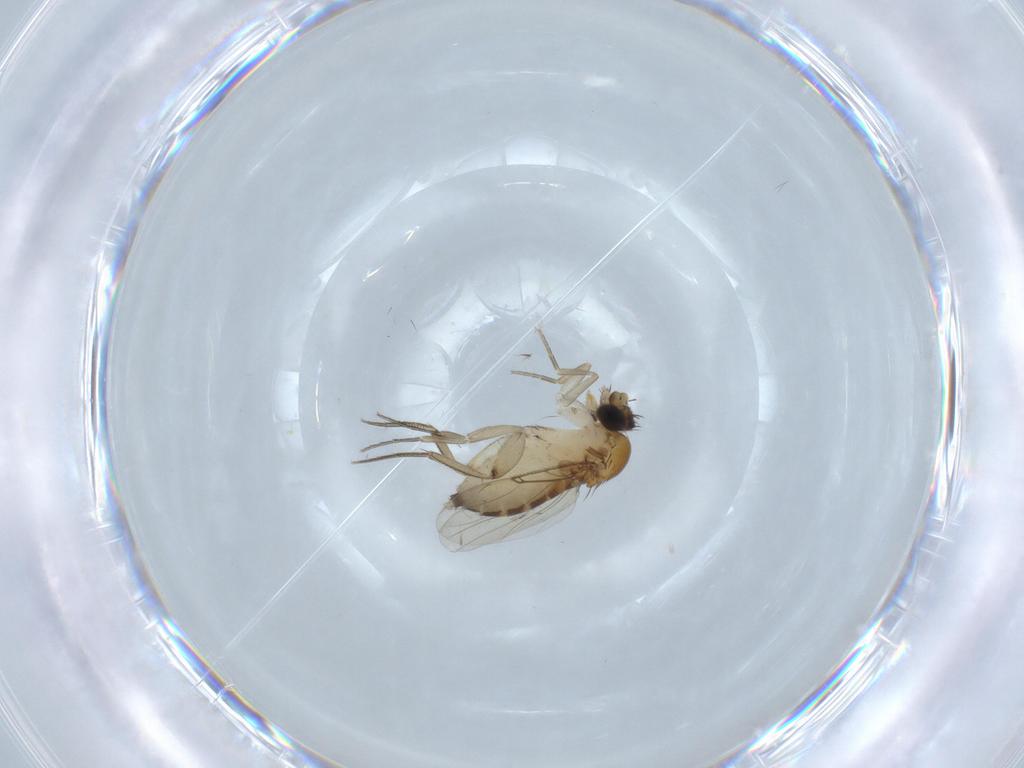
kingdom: Animalia
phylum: Arthropoda
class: Insecta
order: Diptera
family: Phoridae
